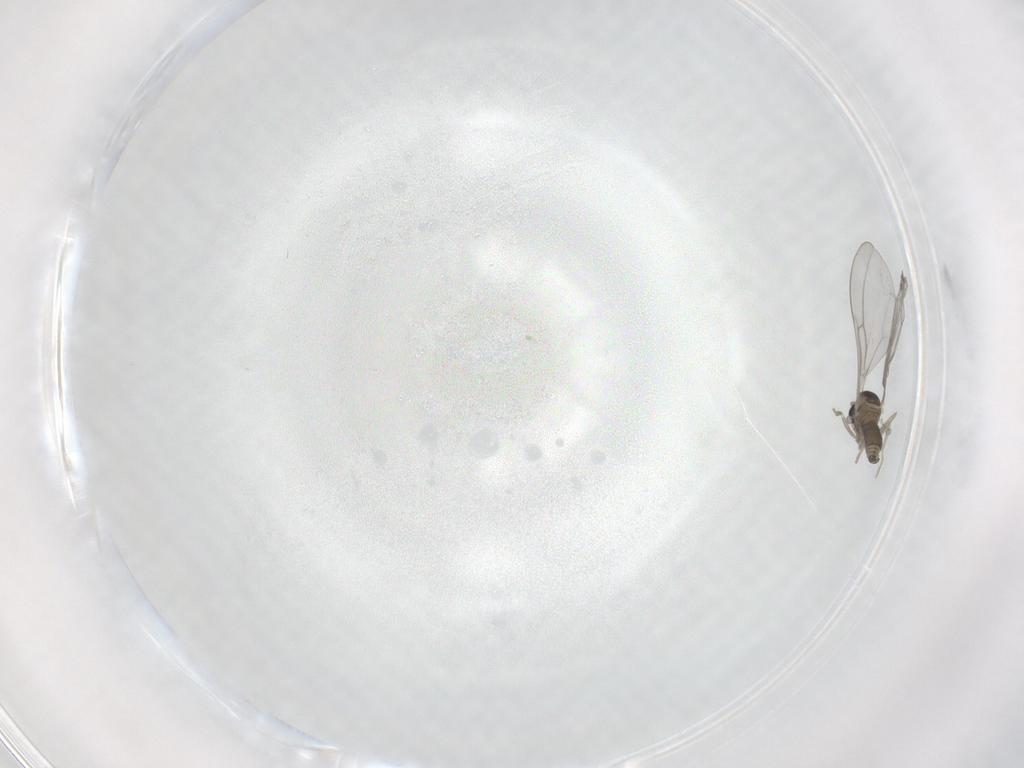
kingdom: Animalia
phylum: Arthropoda
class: Insecta
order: Diptera
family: Cecidomyiidae
